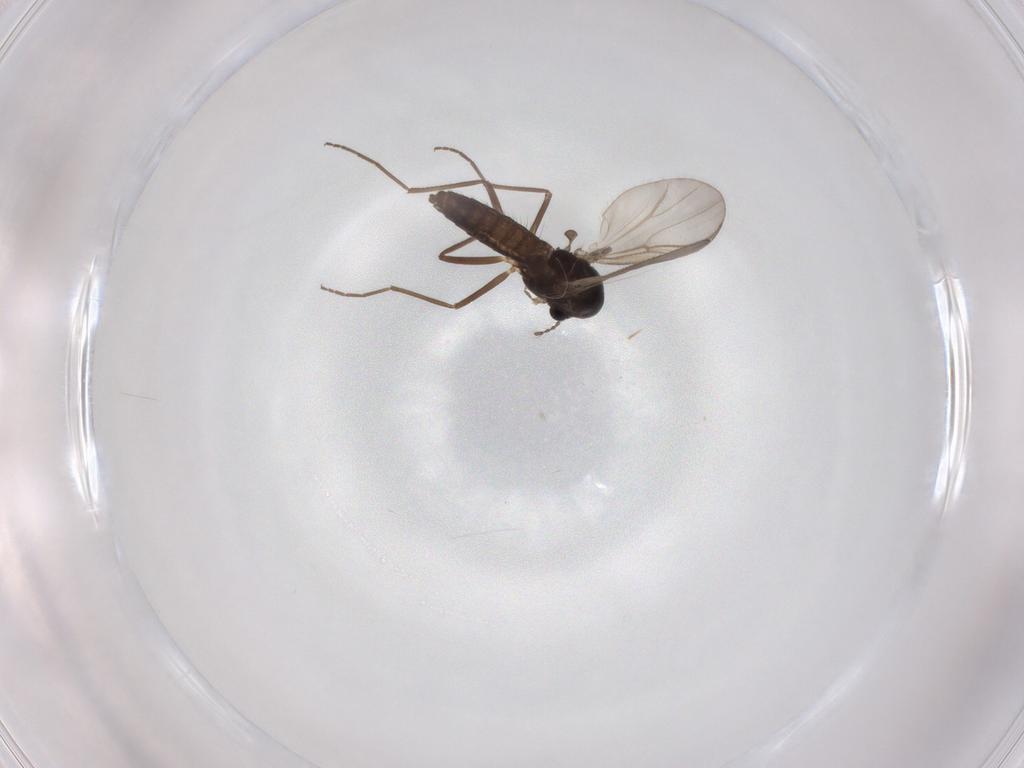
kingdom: Animalia
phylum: Arthropoda
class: Insecta
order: Diptera
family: Chironomidae
